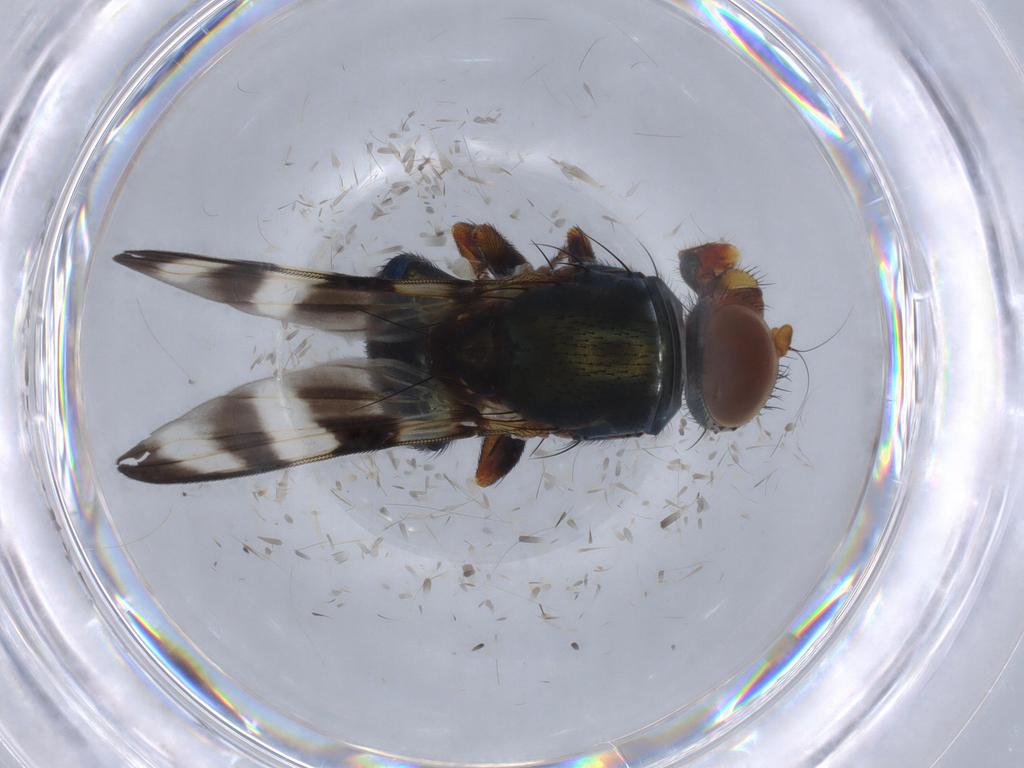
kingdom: Animalia
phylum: Arthropoda
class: Insecta
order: Diptera
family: Ulidiidae
